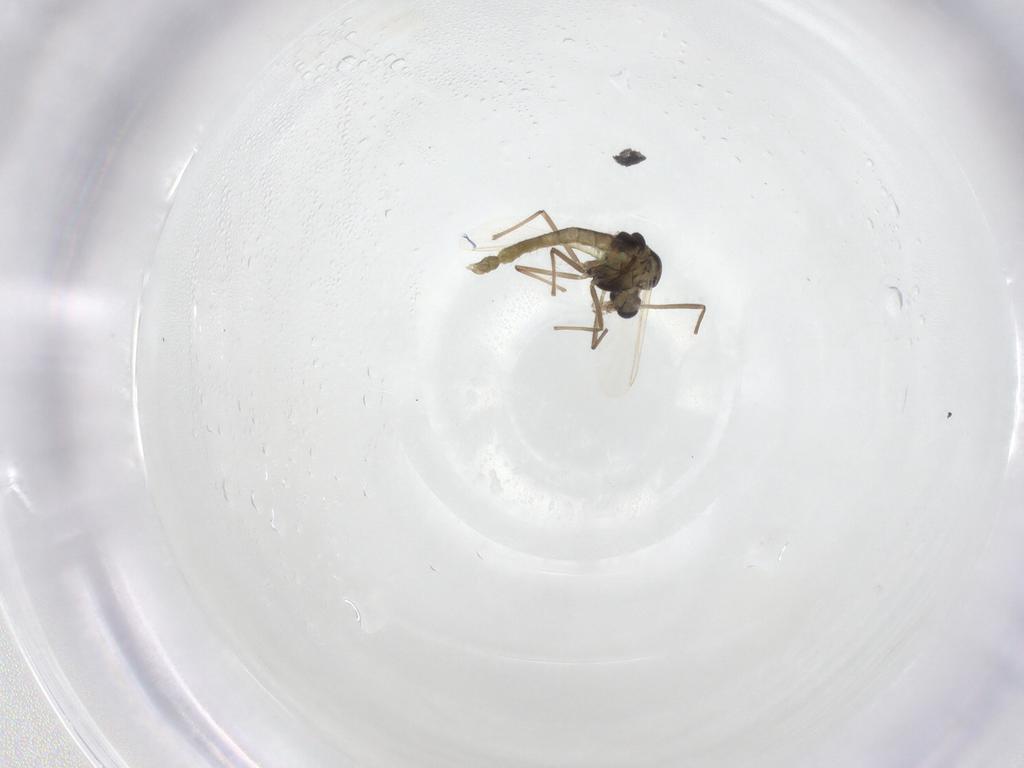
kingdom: Animalia
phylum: Arthropoda
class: Insecta
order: Diptera
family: Chironomidae
